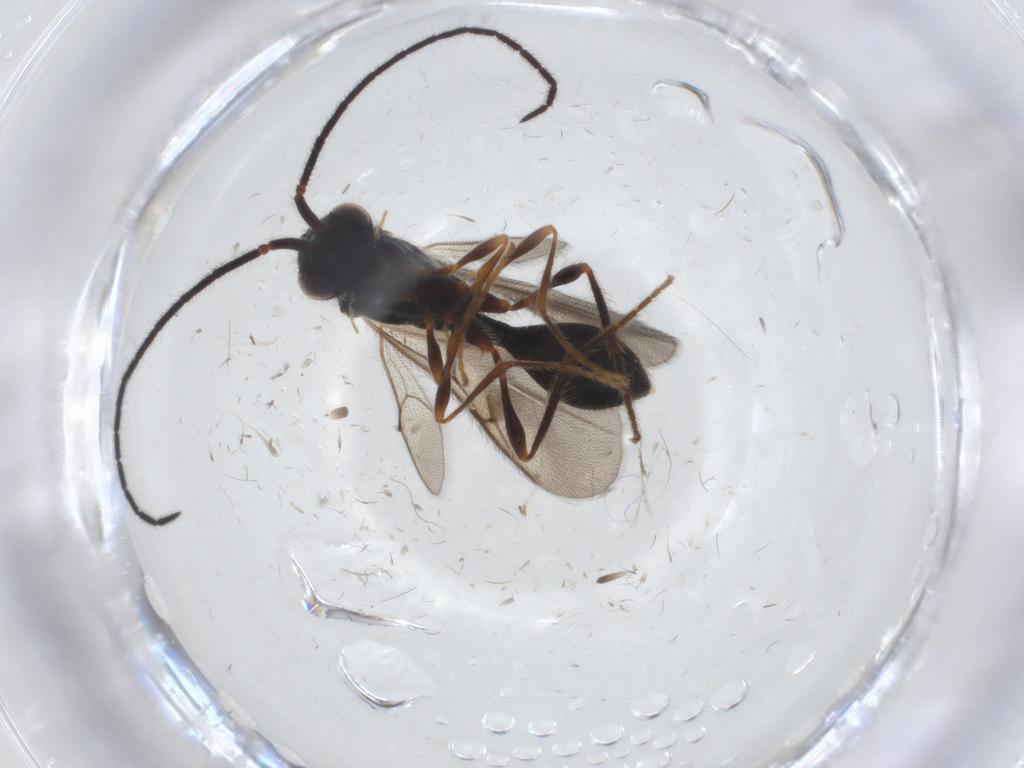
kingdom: Animalia
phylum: Arthropoda
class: Insecta
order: Hymenoptera
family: Diapriidae
